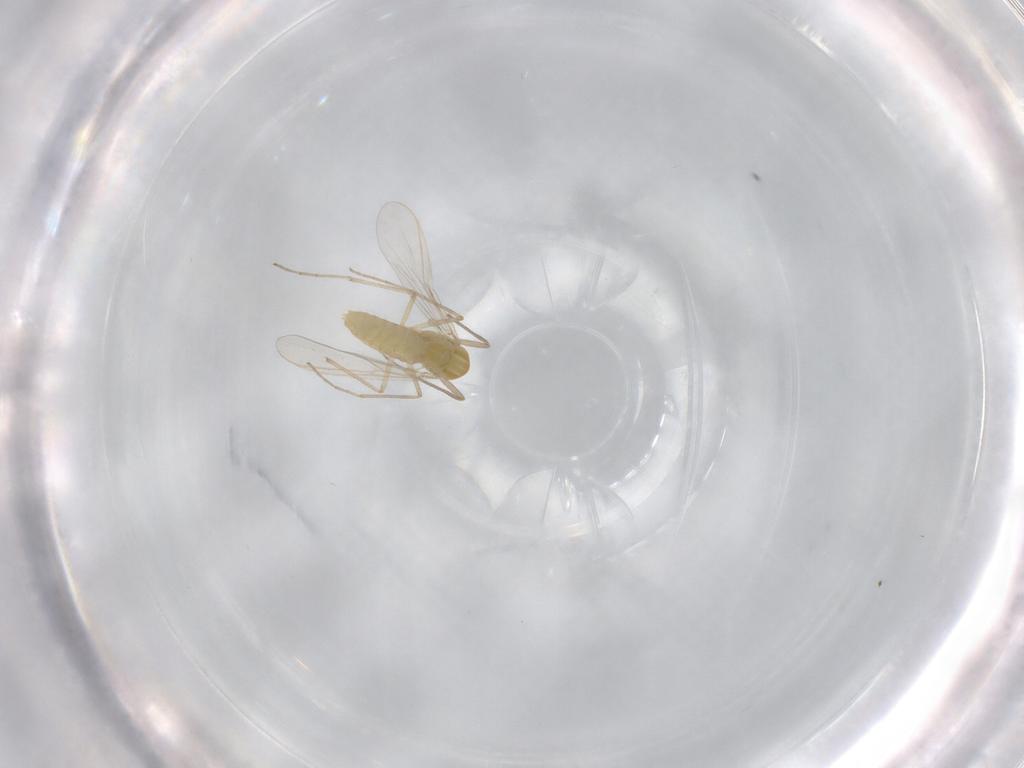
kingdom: Animalia
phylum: Arthropoda
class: Insecta
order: Diptera
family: Chironomidae
